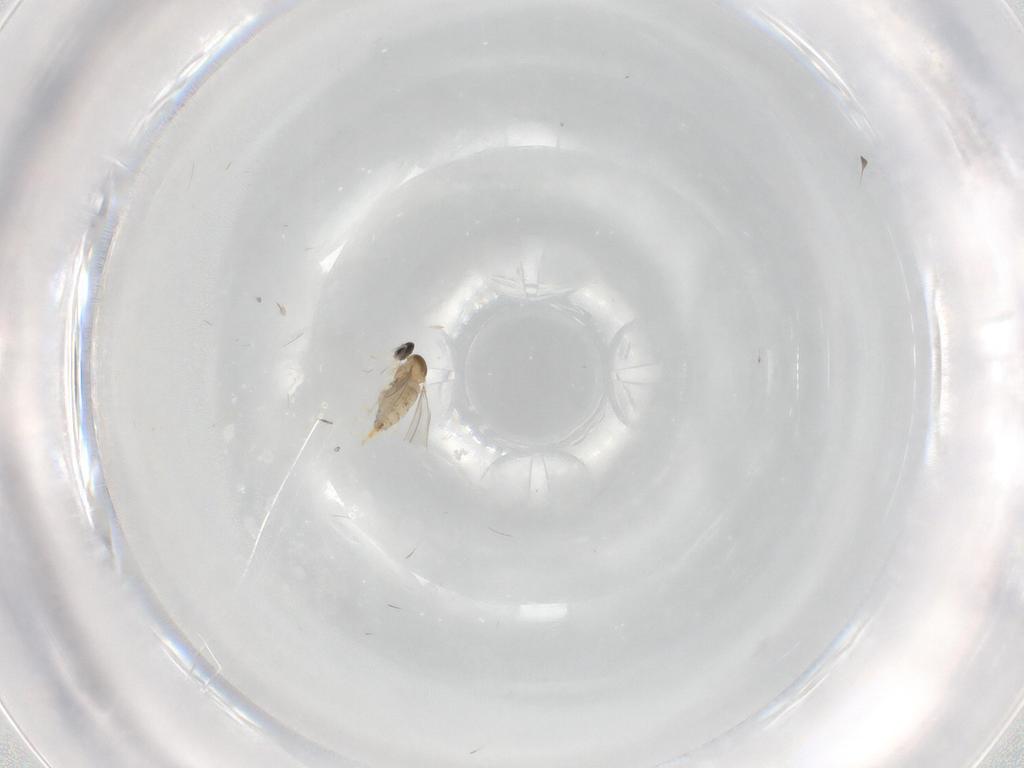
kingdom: Animalia
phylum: Arthropoda
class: Insecta
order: Diptera
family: Cecidomyiidae
